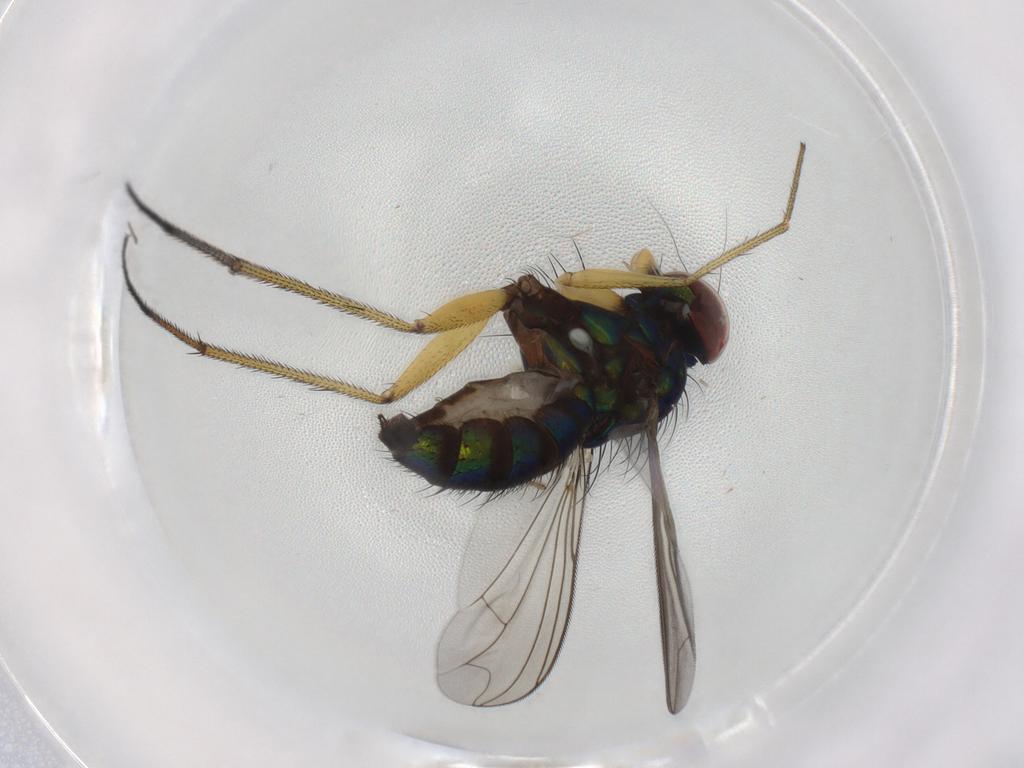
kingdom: Animalia
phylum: Arthropoda
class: Insecta
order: Diptera
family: Dolichopodidae
